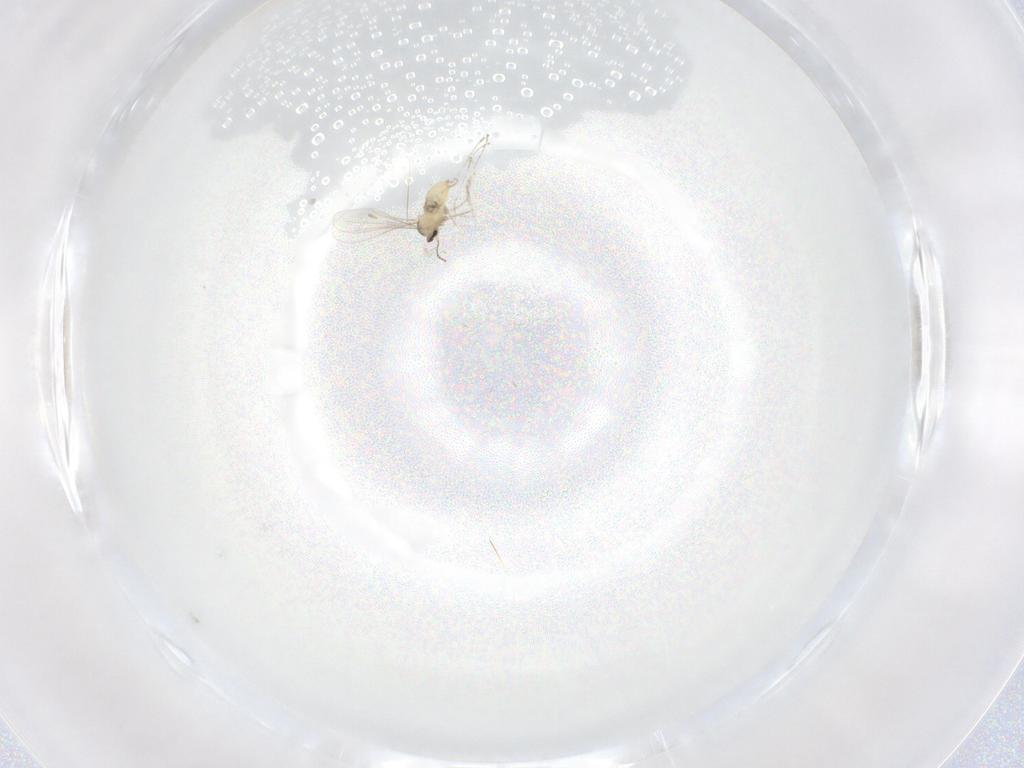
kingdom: Animalia
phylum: Arthropoda
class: Insecta
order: Diptera
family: Cecidomyiidae
